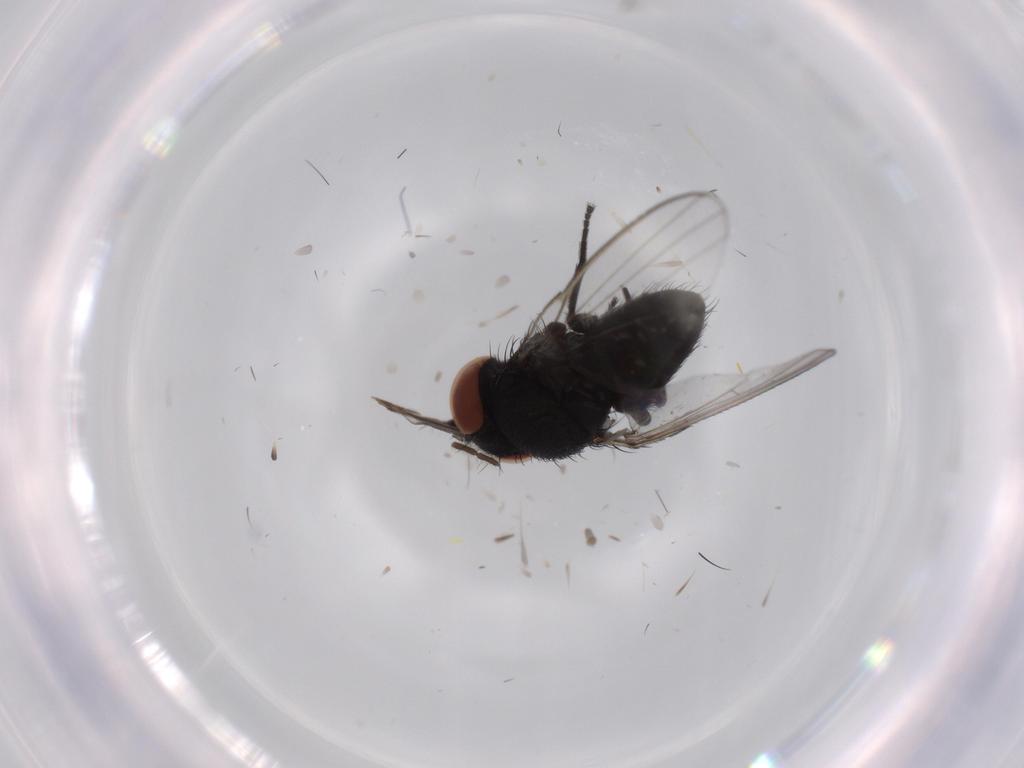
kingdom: Animalia
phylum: Arthropoda
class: Insecta
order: Diptera
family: Milichiidae
